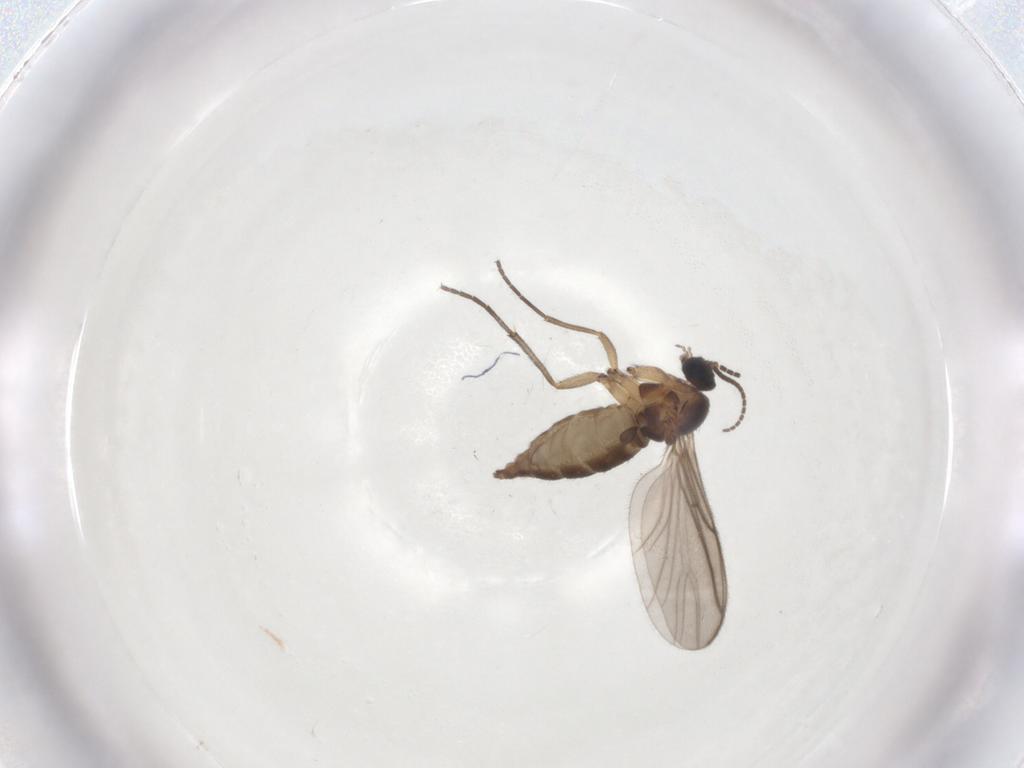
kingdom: Animalia
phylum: Arthropoda
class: Insecta
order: Diptera
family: Sciaridae
